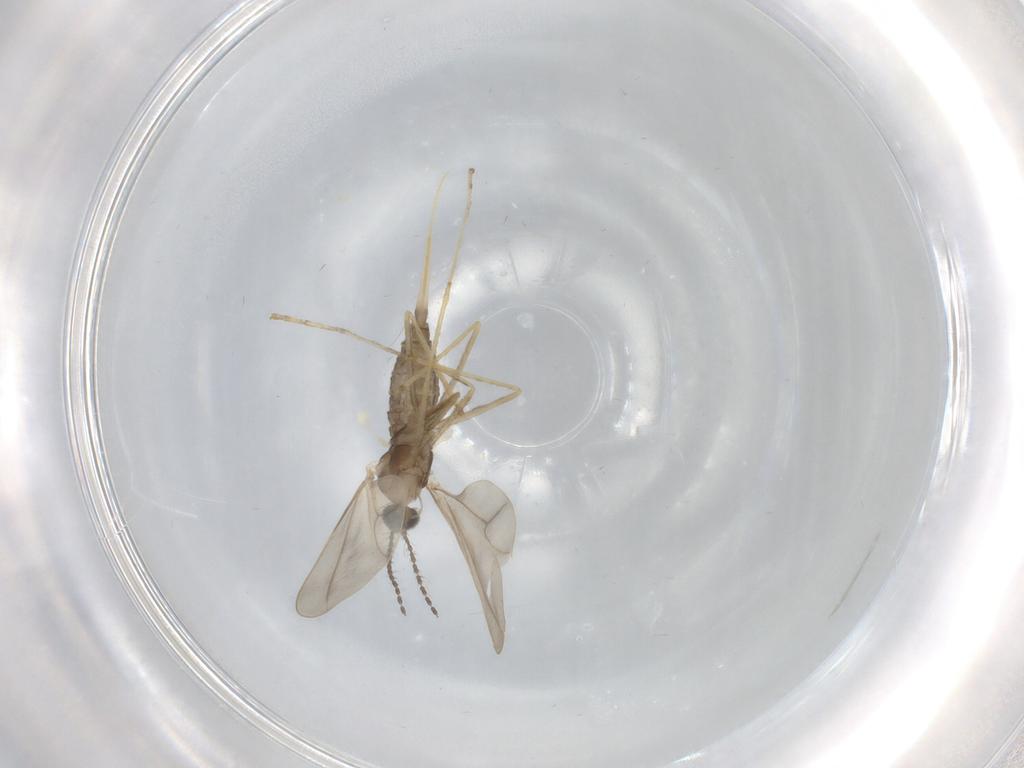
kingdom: Animalia
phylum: Arthropoda
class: Insecta
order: Diptera
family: Cecidomyiidae
